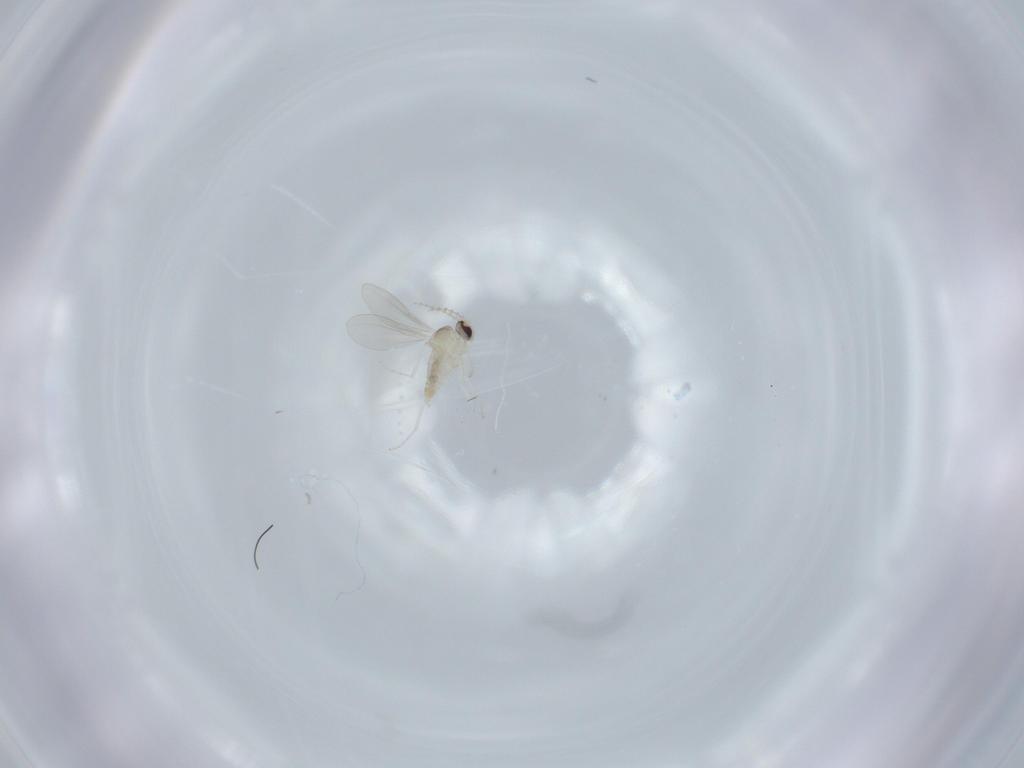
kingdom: Animalia
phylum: Arthropoda
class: Insecta
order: Diptera
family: Cecidomyiidae
